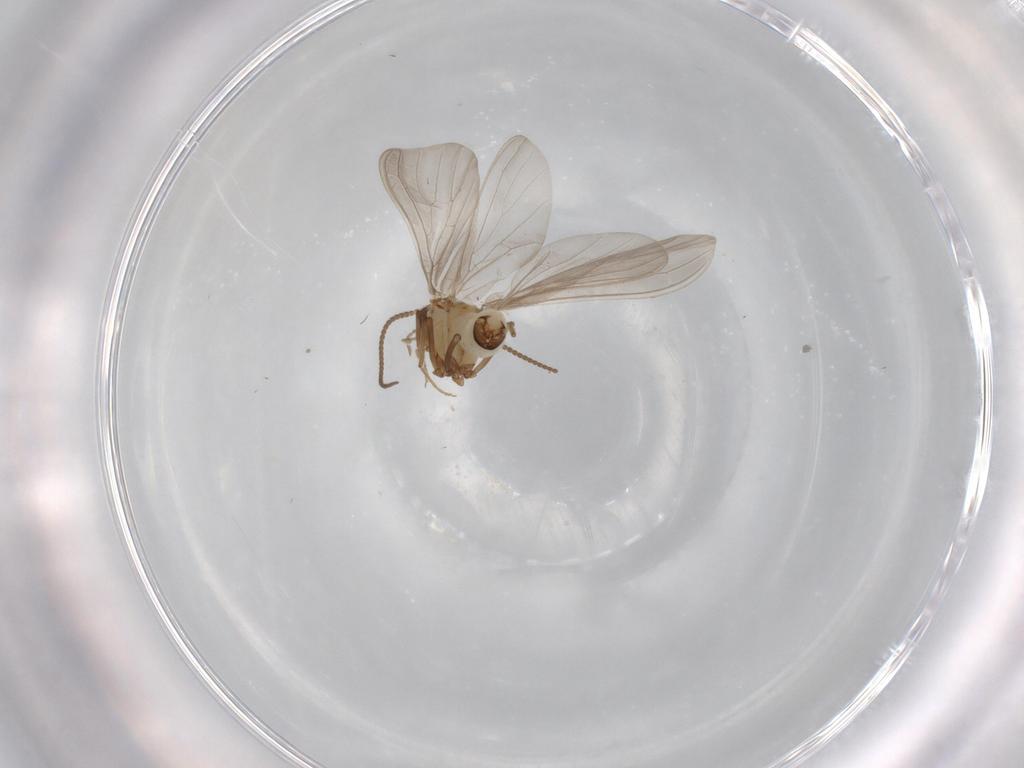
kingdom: Animalia
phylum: Arthropoda
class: Insecta
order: Neuroptera
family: Coniopterygidae
